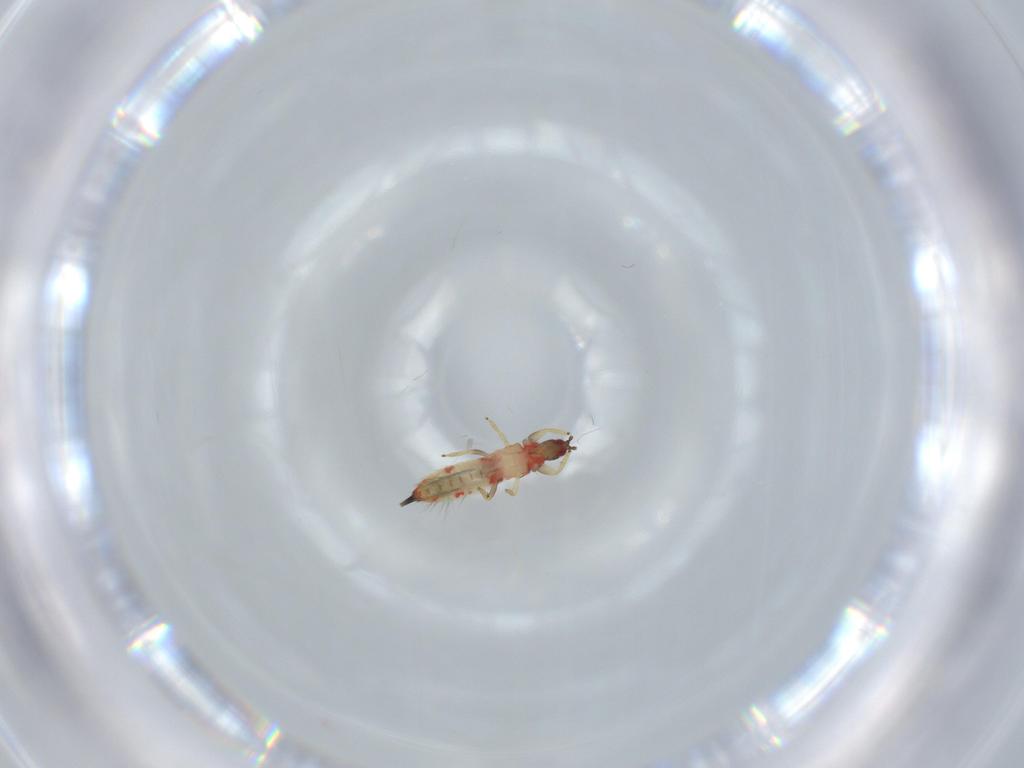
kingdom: Animalia
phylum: Arthropoda
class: Insecta
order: Thysanoptera
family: Phlaeothripidae
